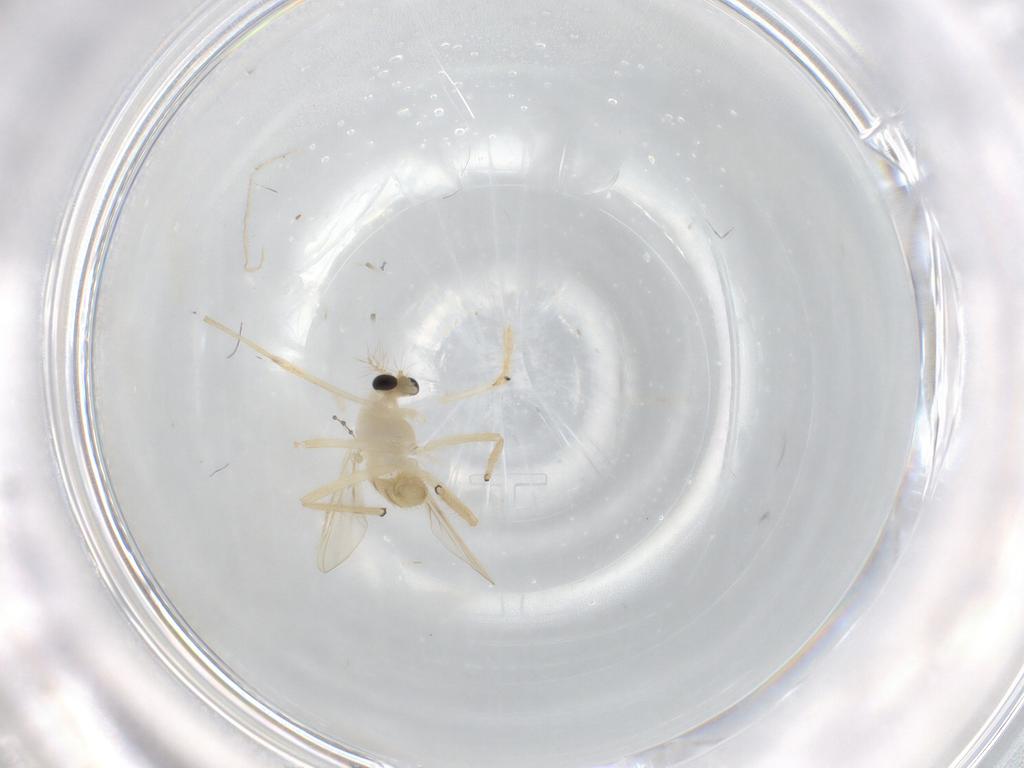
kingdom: Animalia
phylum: Arthropoda
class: Insecta
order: Diptera
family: Chironomidae
